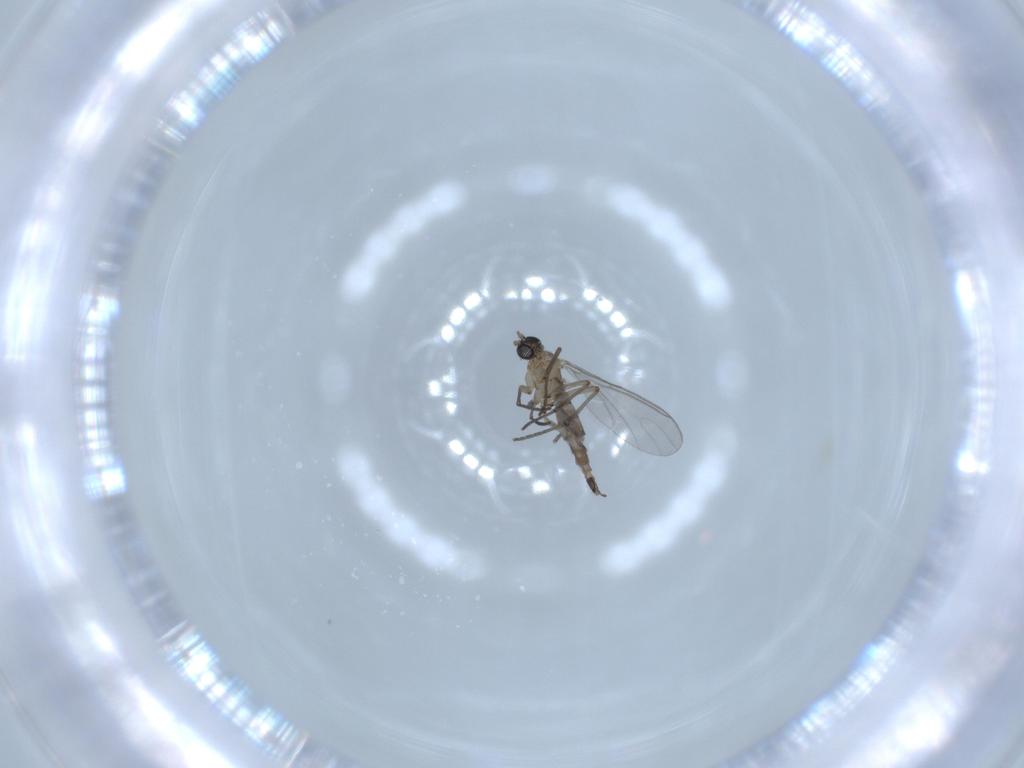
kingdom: Animalia
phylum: Arthropoda
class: Insecta
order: Diptera
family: Sciaridae
